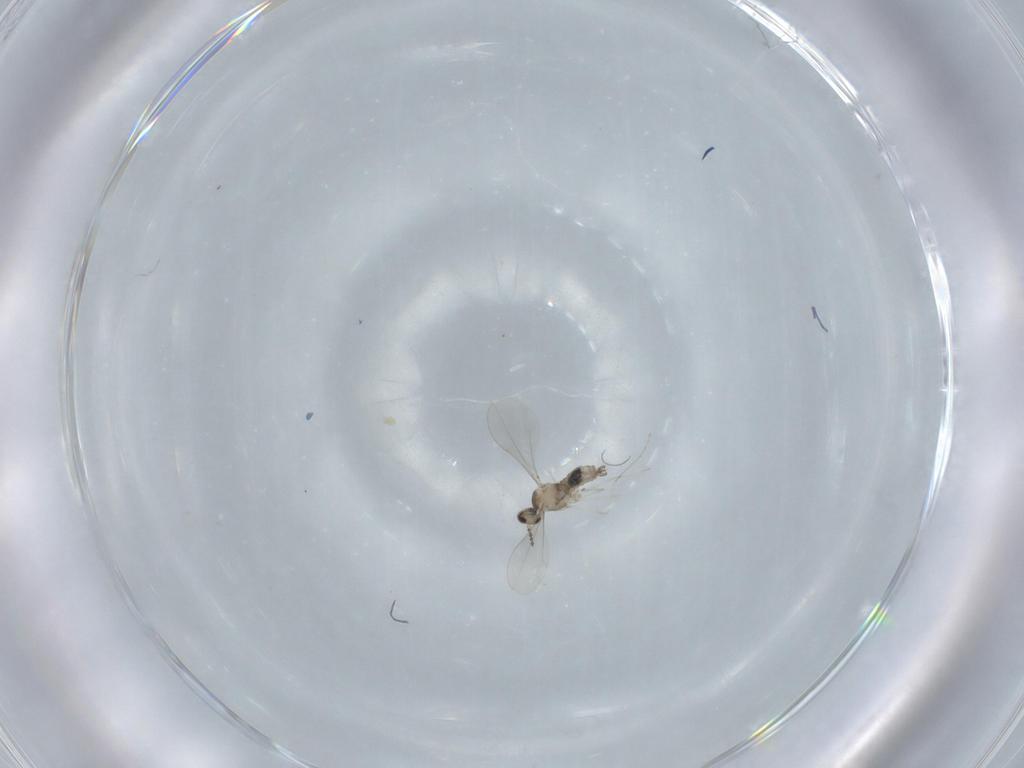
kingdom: Animalia
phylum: Arthropoda
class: Insecta
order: Diptera
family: Cecidomyiidae
